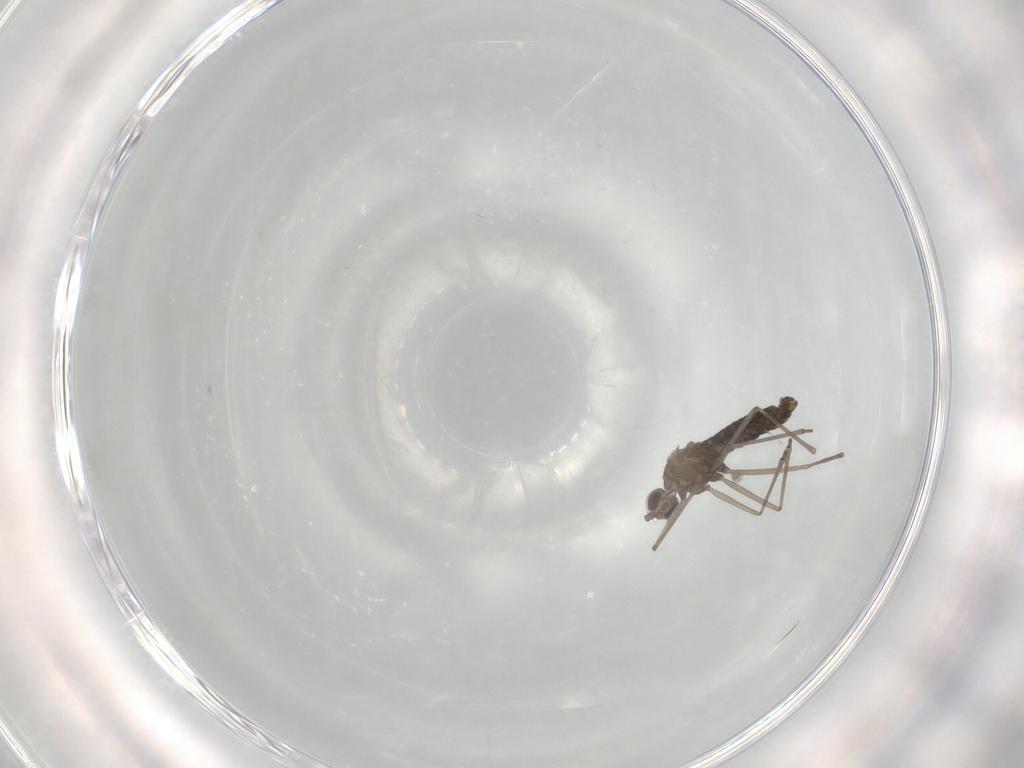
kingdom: Animalia
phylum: Arthropoda
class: Insecta
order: Diptera
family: Cecidomyiidae
